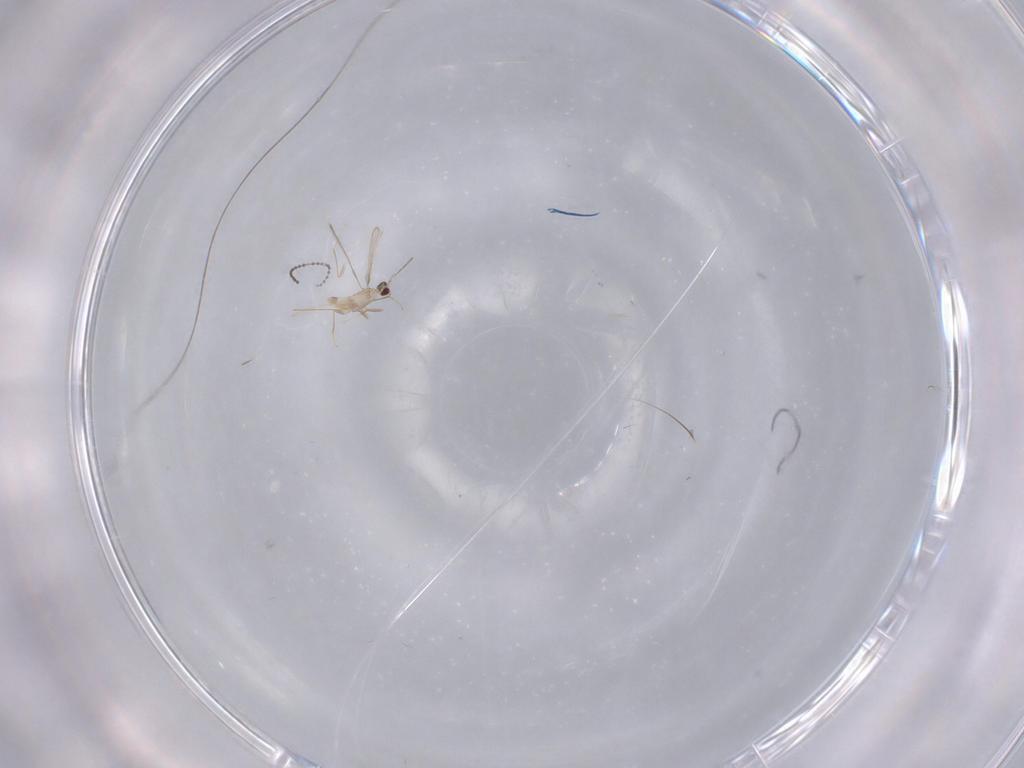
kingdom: Animalia
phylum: Arthropoda
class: Insecta
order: Hymenoptera
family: Mymaridae
